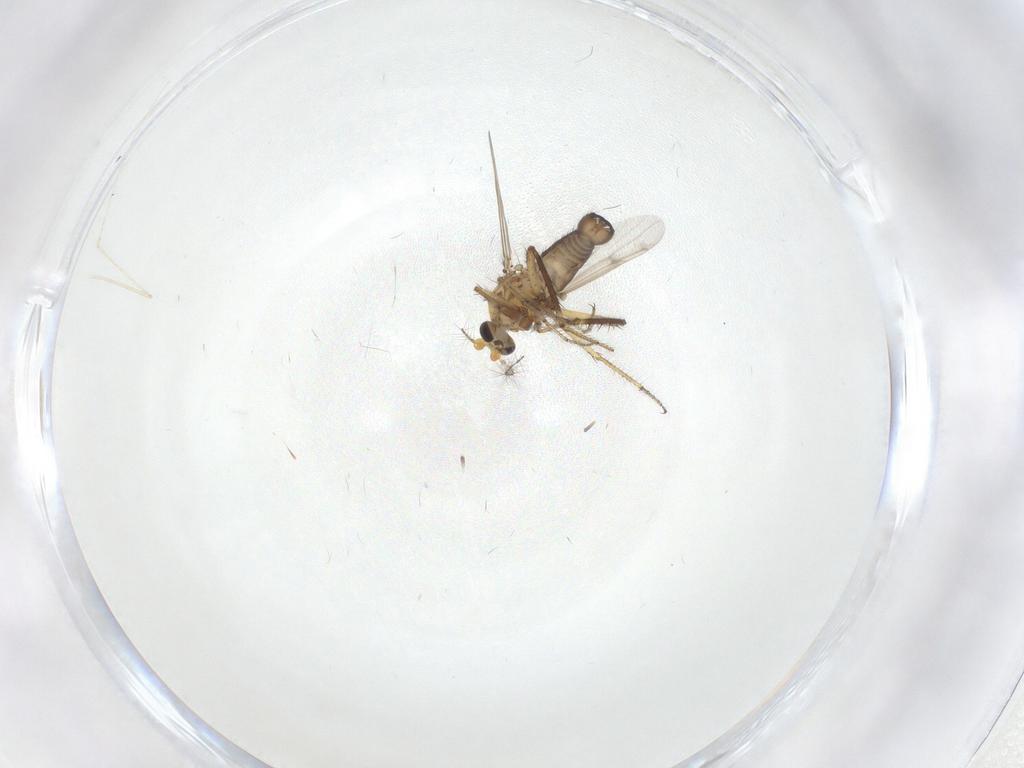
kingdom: Animalia
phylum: Arthropoda
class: Insecta
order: Diptera
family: Cecidomyiidae
